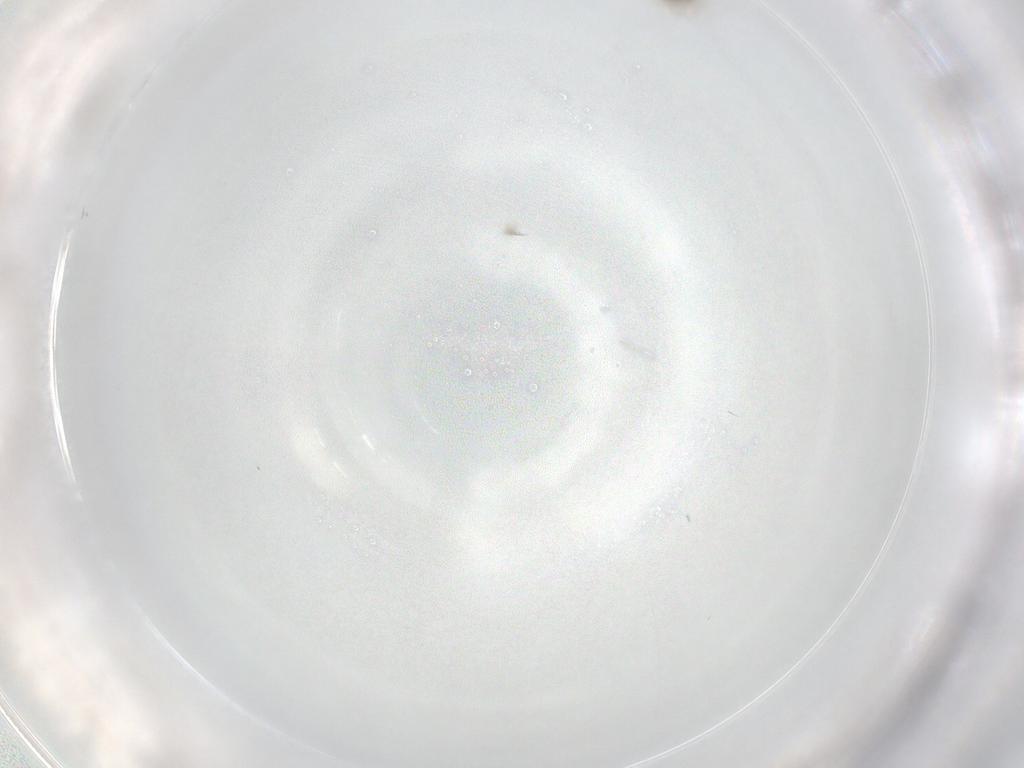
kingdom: Animalia
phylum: Arthropoda
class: Insecta
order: Hymenoptera
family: Aphelinidae
